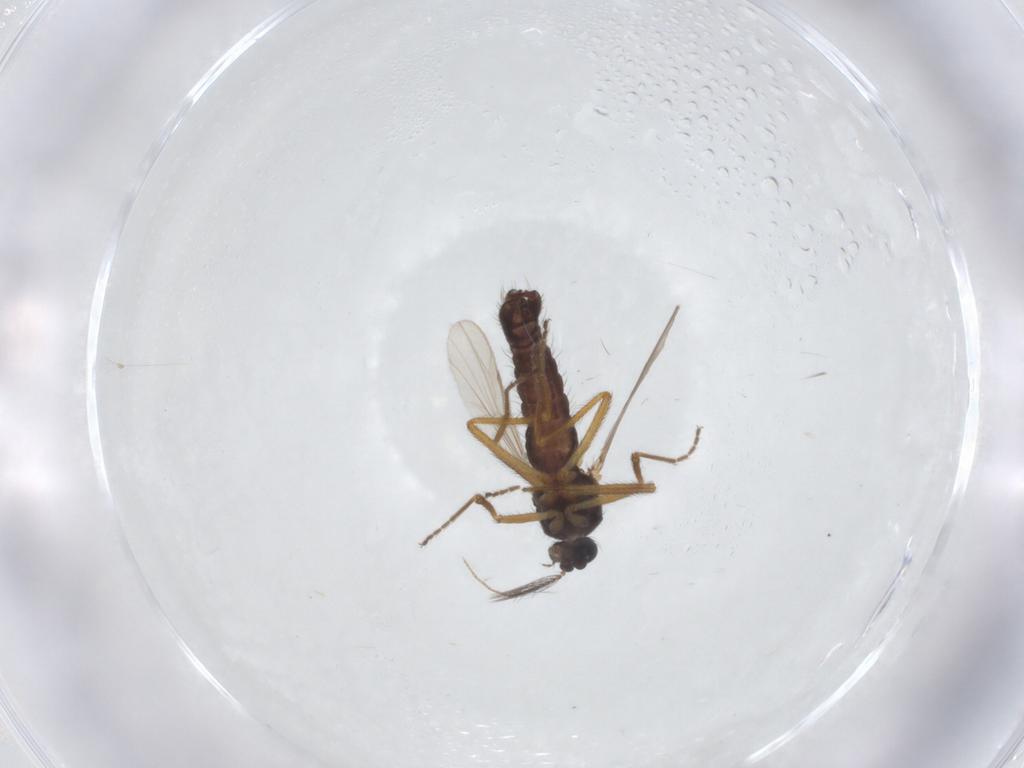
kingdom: Animalia
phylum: Arthropoda
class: Insecta
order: Diptera
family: Ceratopogonidae
